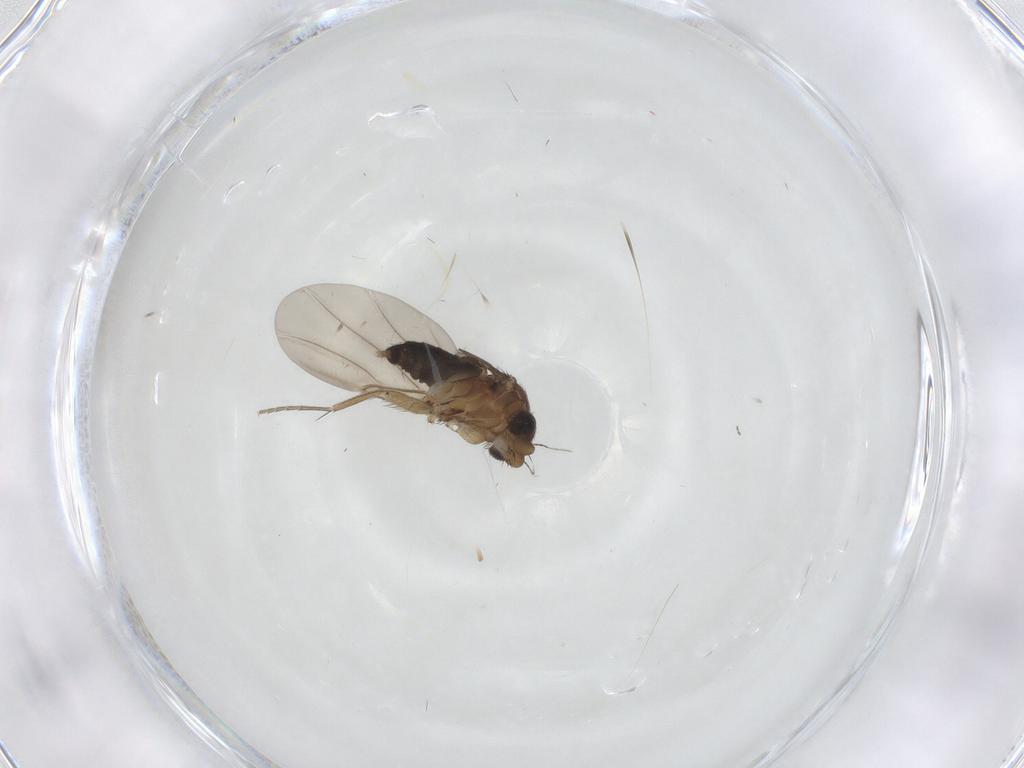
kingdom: Animalia
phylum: Arthropoda
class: Insecta
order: Diptera
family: Phoridae
